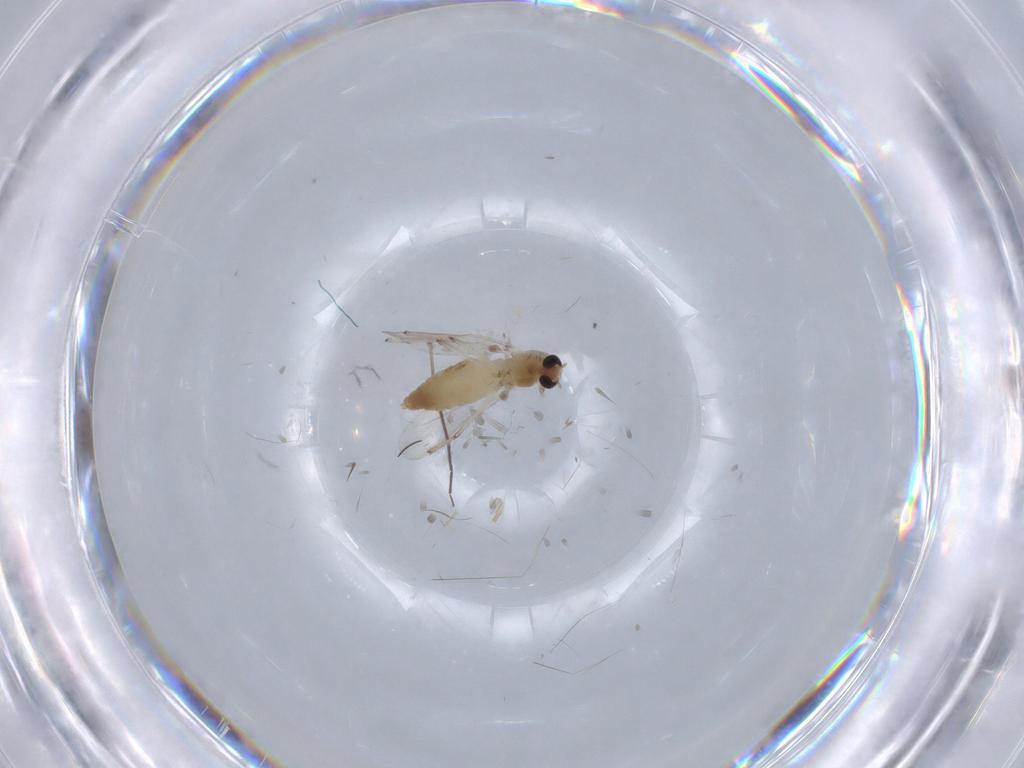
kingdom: Animalia
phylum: Arthropoda
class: Insecta
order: Diptera
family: Chironomidae
